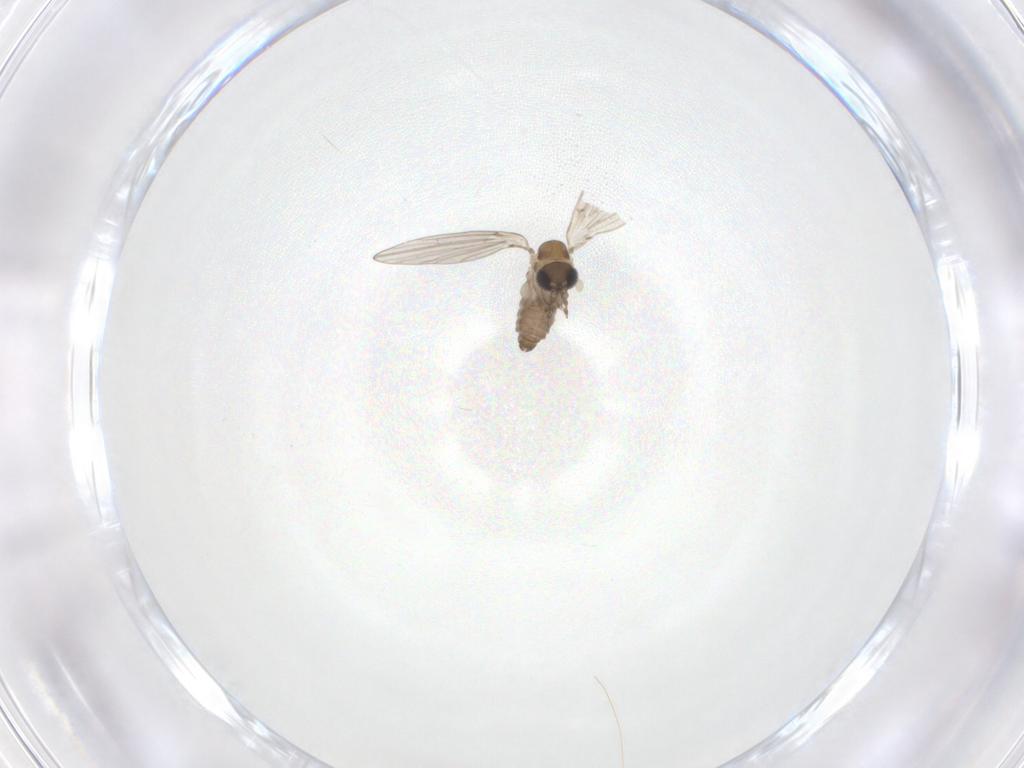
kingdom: Animalia
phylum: Arthropoda
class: Insecta
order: Diptera
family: Psychodidae
